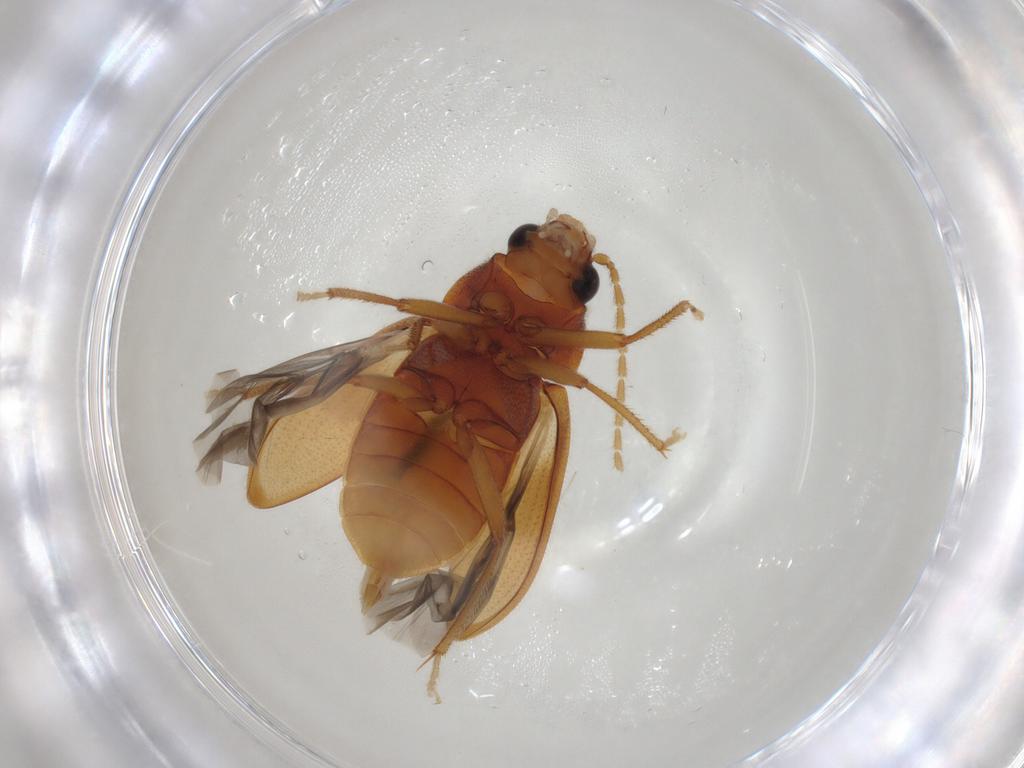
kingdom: Animalia
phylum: Arthropoda
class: Insecta
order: Coleoptera
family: Ptilodactylidae
